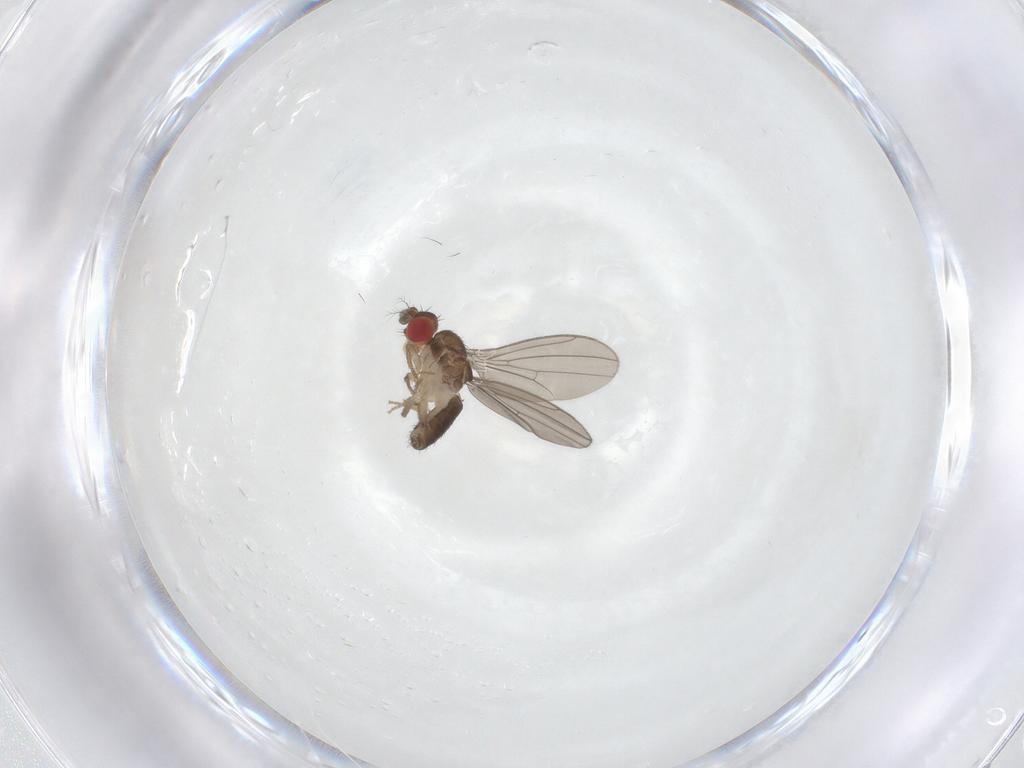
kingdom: Animalia
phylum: Arthropoda
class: Insecta
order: Diptera
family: Drosophilidae
